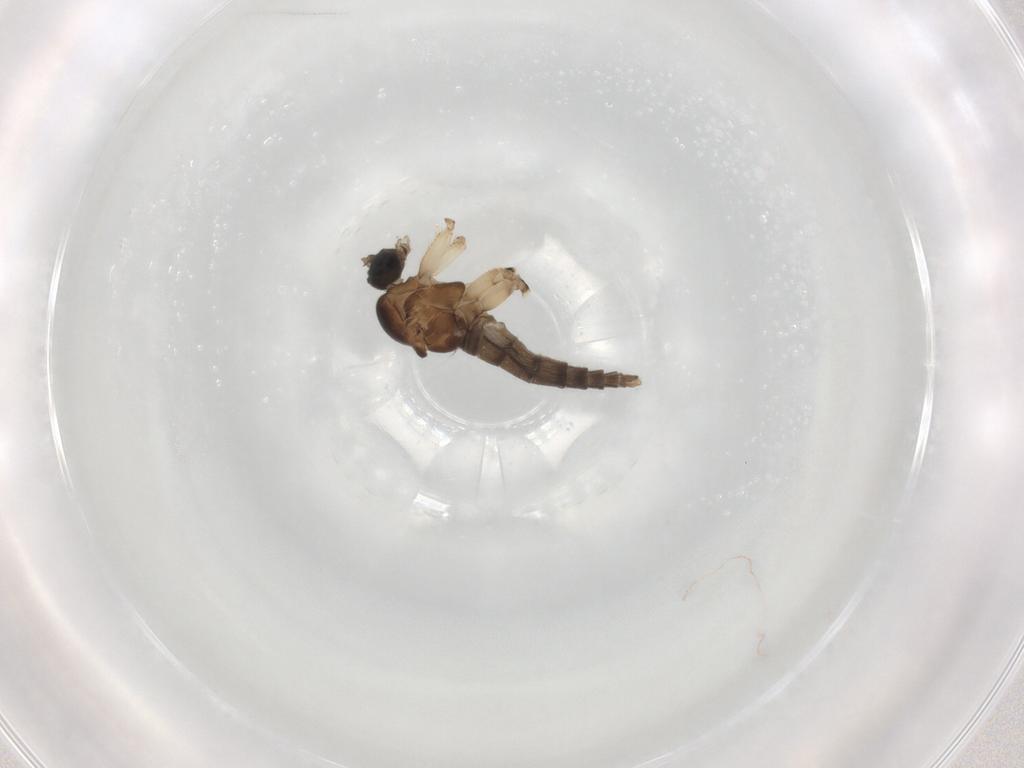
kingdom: Animalia
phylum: Arthropoda
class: Insecta
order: Diptera
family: Sciaridae
